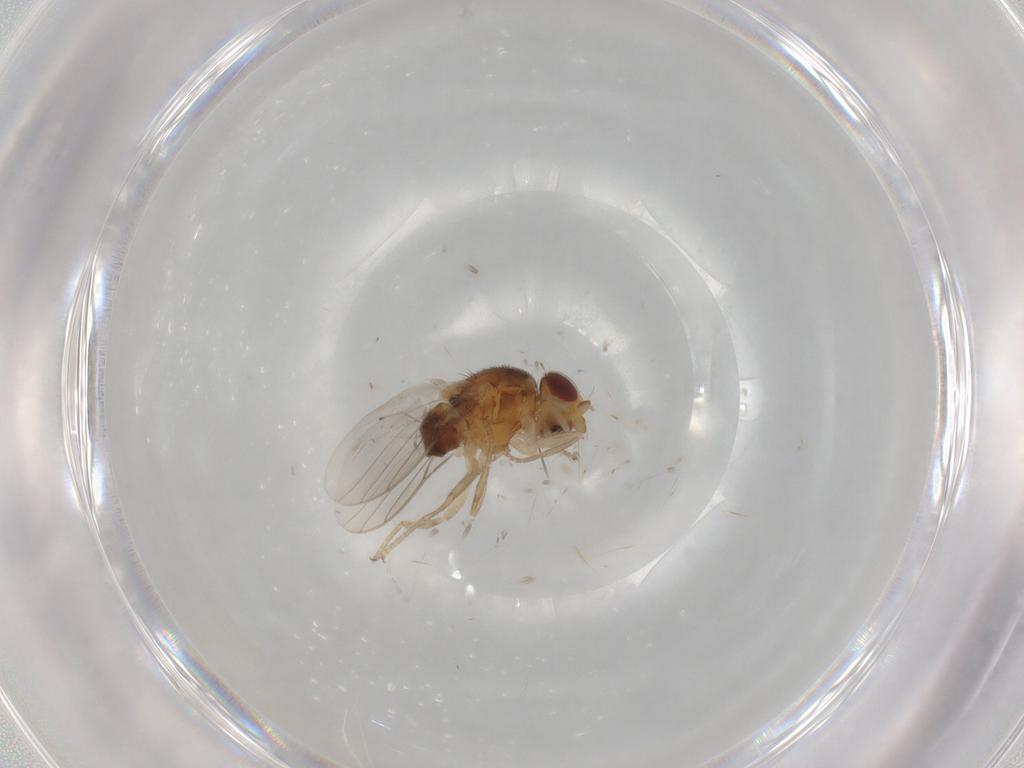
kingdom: Animalia
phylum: Arthropoda
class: Insecta
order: Diptera
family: Chloropidae
